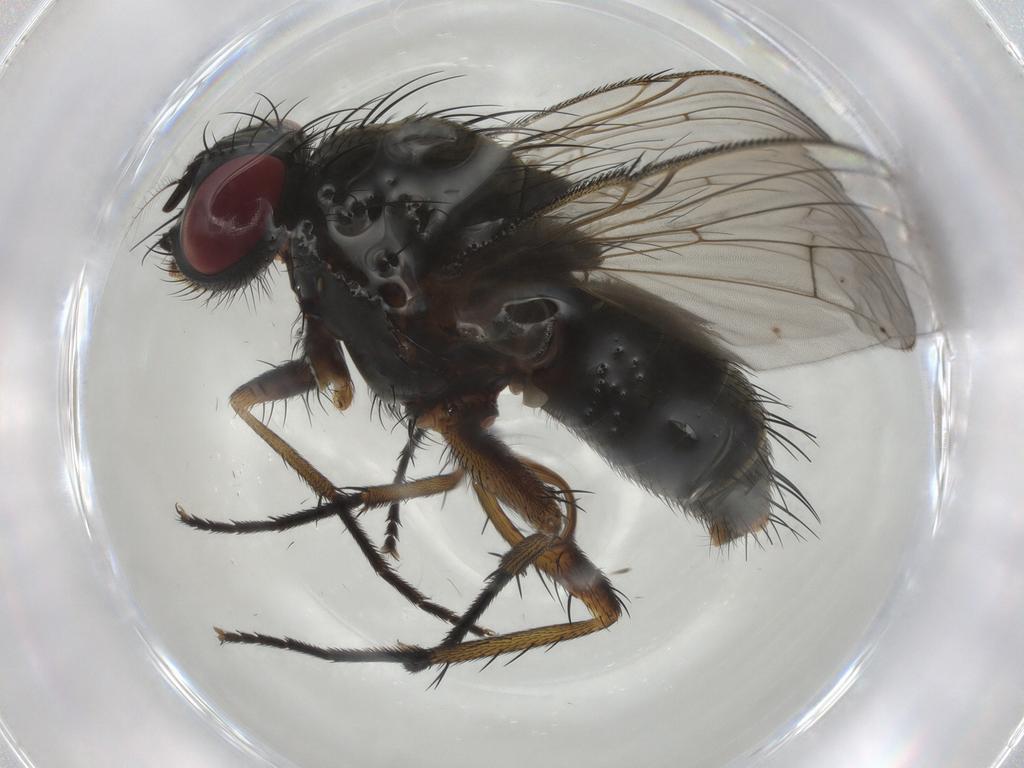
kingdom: Animalia
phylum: Arthropoda
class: Insecta
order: Diptera
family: Muscidae
